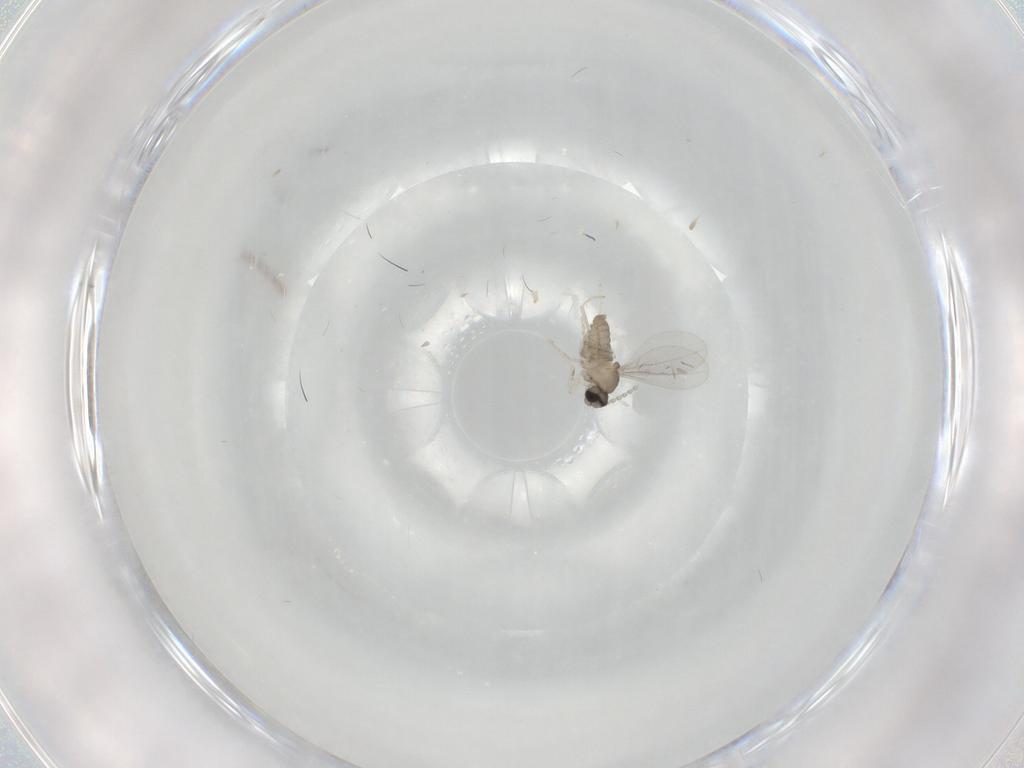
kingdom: Animalia
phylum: Arthropoda
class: Insecta
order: Diptera
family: Cecidomyiidae
